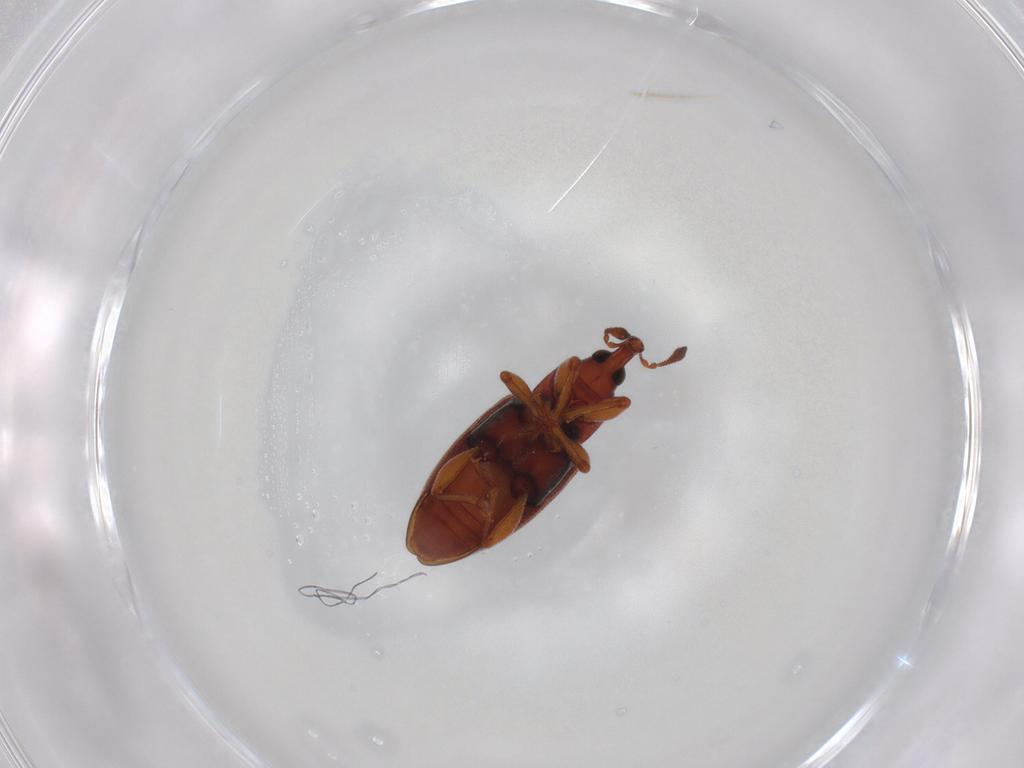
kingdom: Animalia
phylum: Arthropoda
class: Insecta
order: Coleoptera
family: Curculionidae
